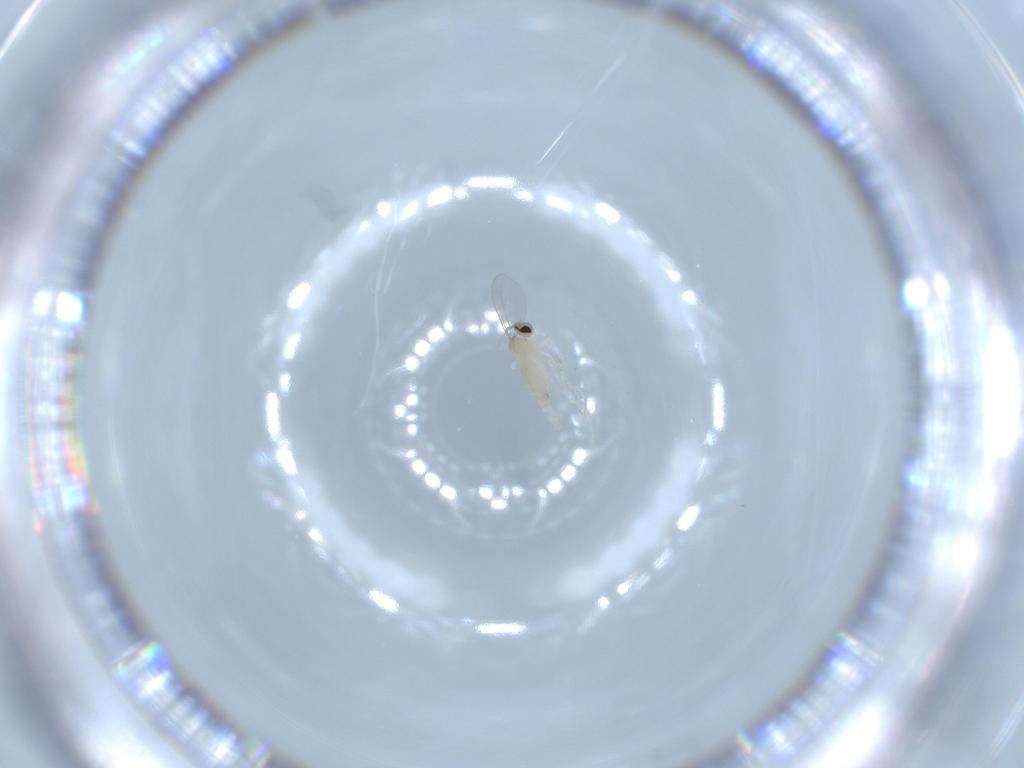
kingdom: Animalia
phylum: Arthropoda
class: Insecta
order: Diptera
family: Cecidomyiidae
